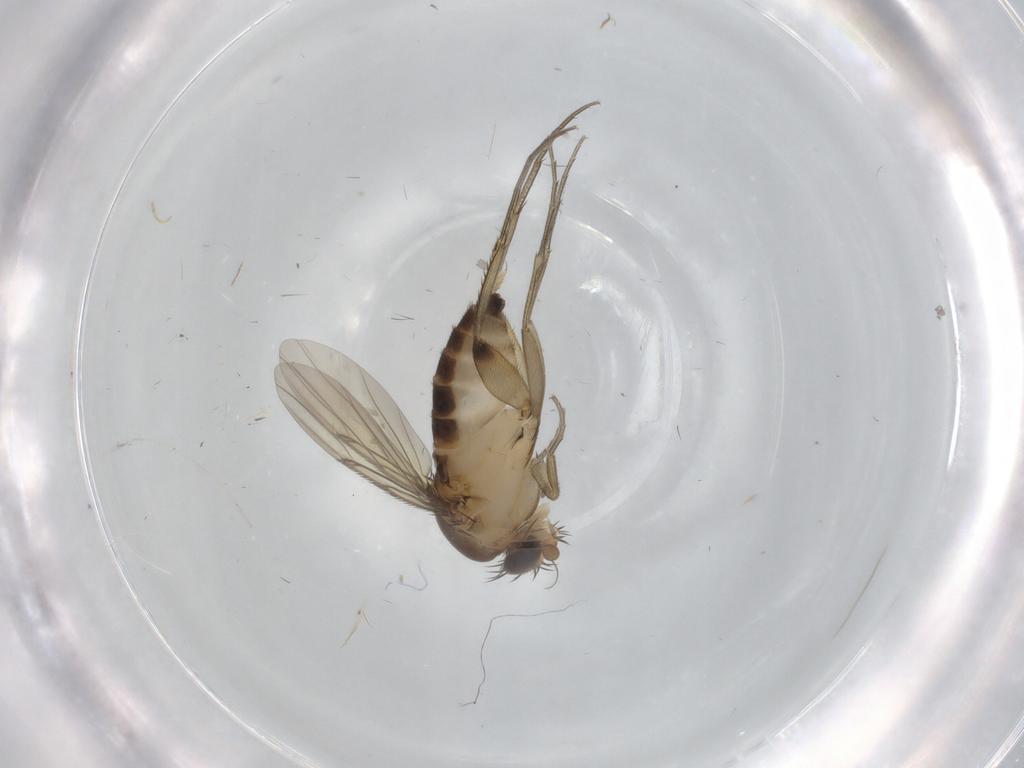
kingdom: Animalia
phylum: Arthropoda
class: Insecta
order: Diptera
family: Phoridae
